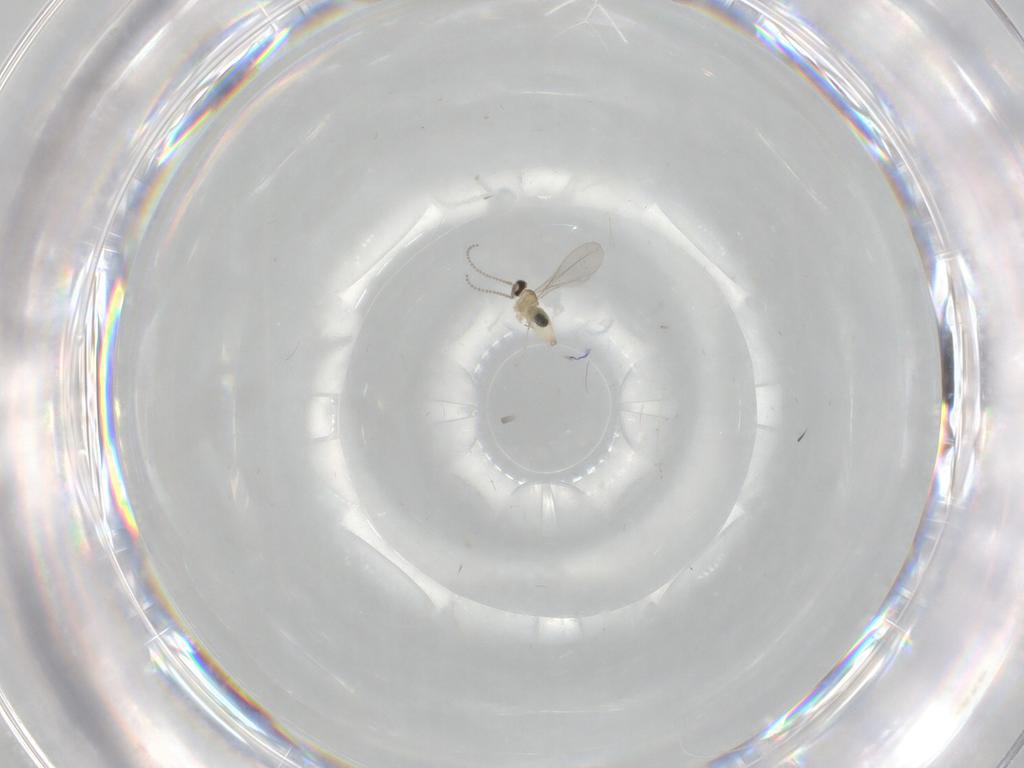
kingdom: Animalia
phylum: Arthropoda
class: Insecta
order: Diptera
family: Cecidomyiidae
